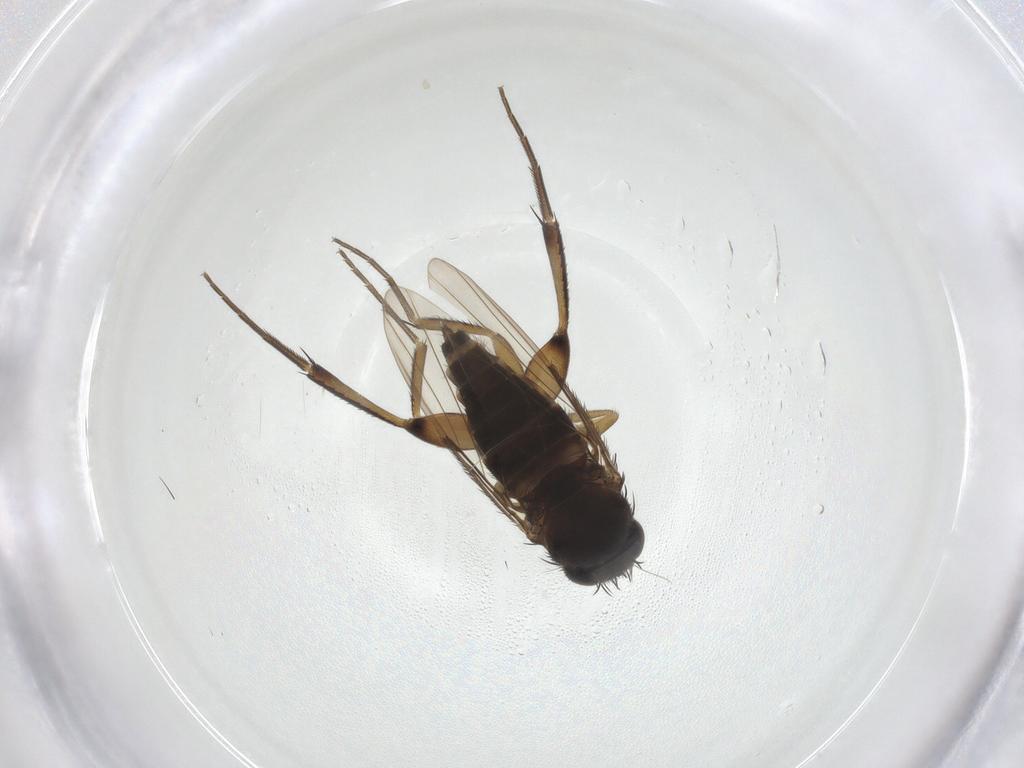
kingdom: Animalia
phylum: Arthropoda
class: Insecta
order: Diptera
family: Phoridae
